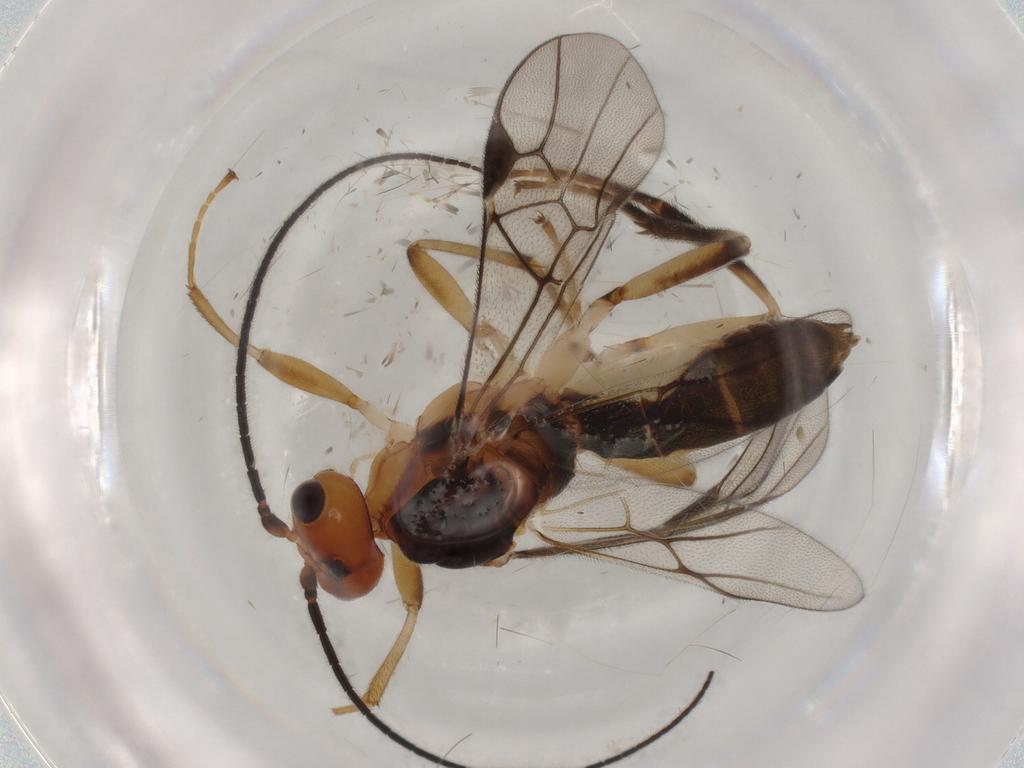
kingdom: Animalia
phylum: Arthropoda
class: Insecta
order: Hymenoptera
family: Braconidae
